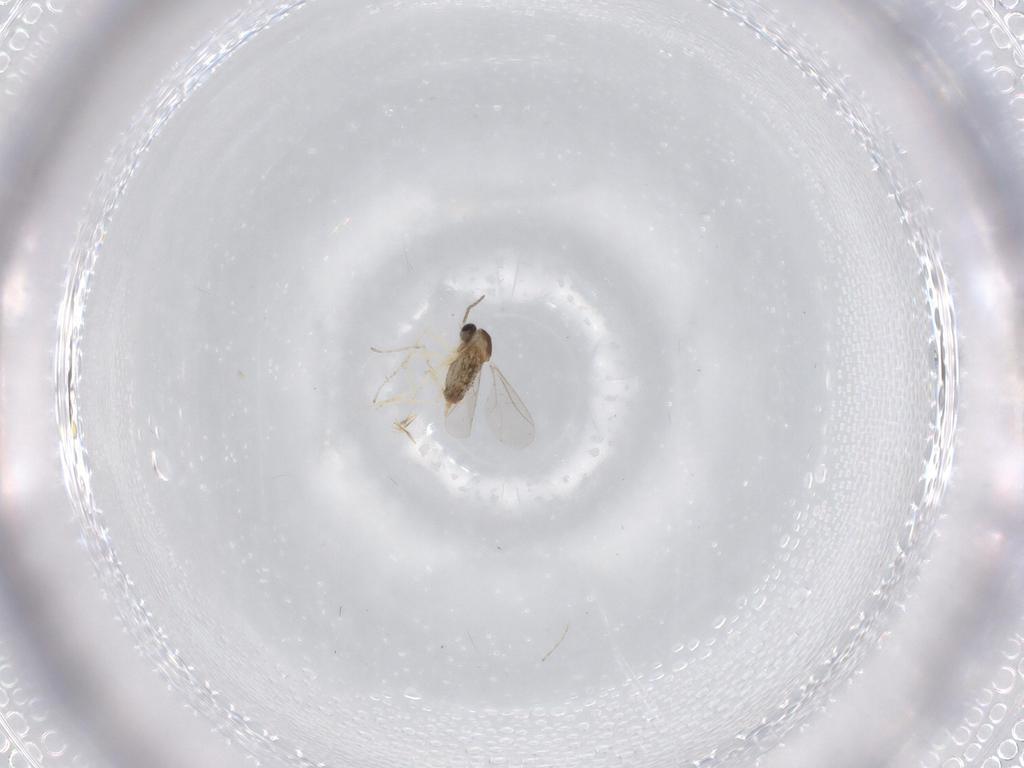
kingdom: Animalia
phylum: Arthropoda
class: Insecta
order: Diptera
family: Cecidomyiidae
